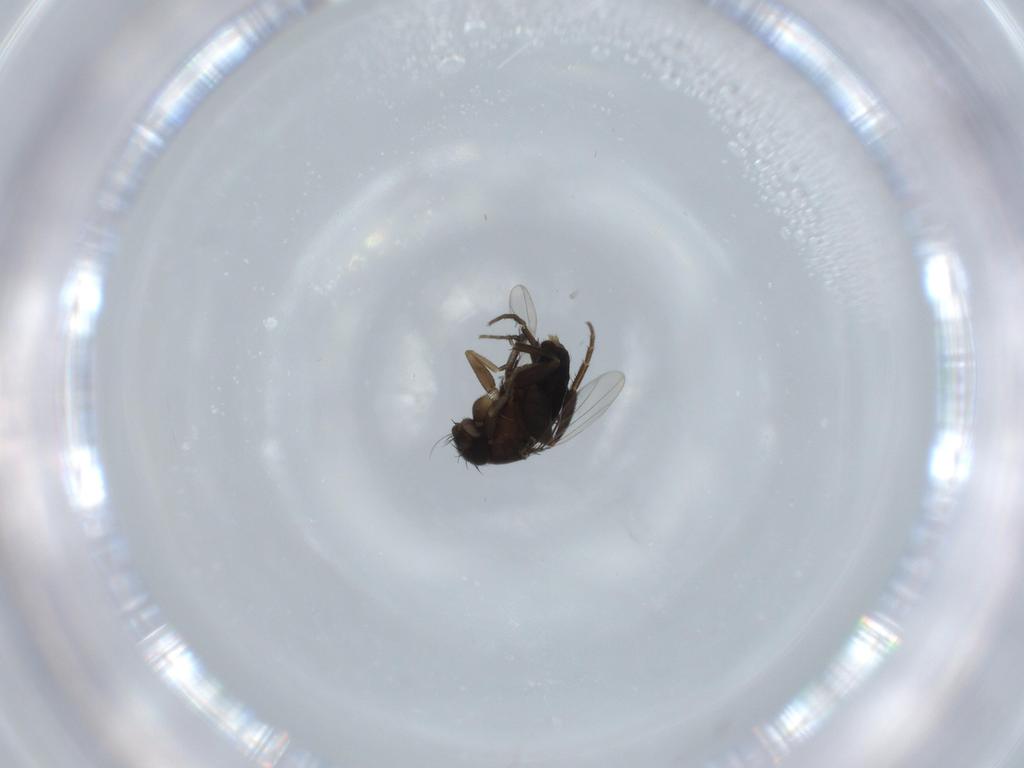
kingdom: Animalia
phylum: Arthropoda
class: Insecta
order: Diptera
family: Phoridae
